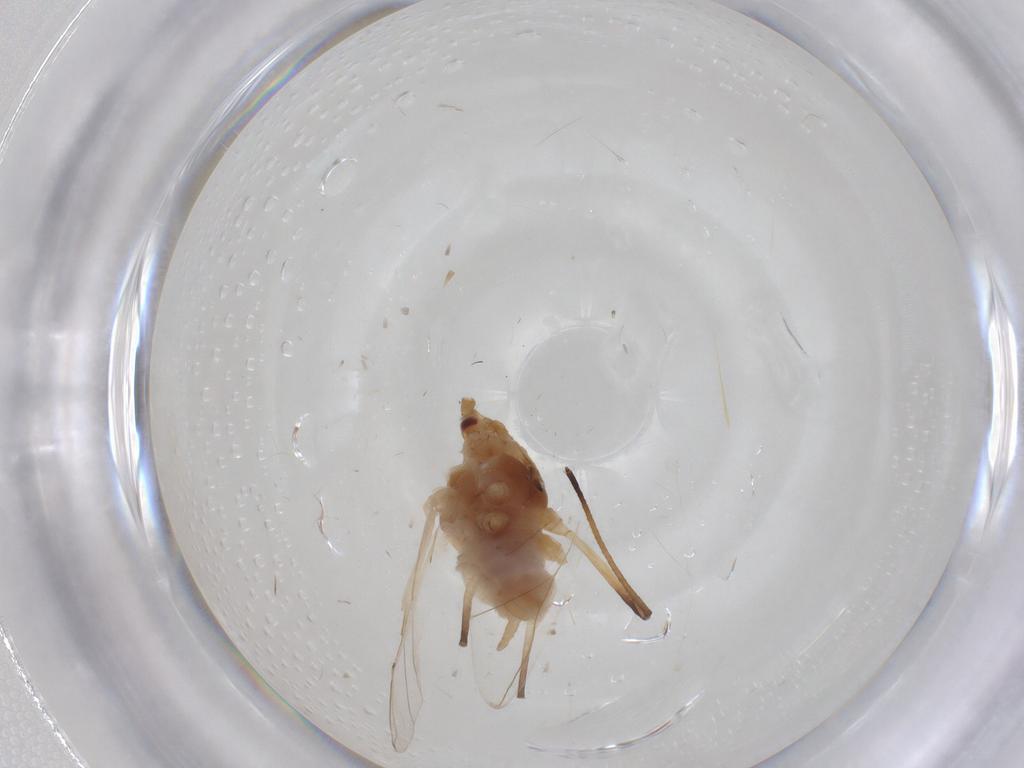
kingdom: Animalia
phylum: Arthropoda
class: Insecta
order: Hemiptera
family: Aphididae
